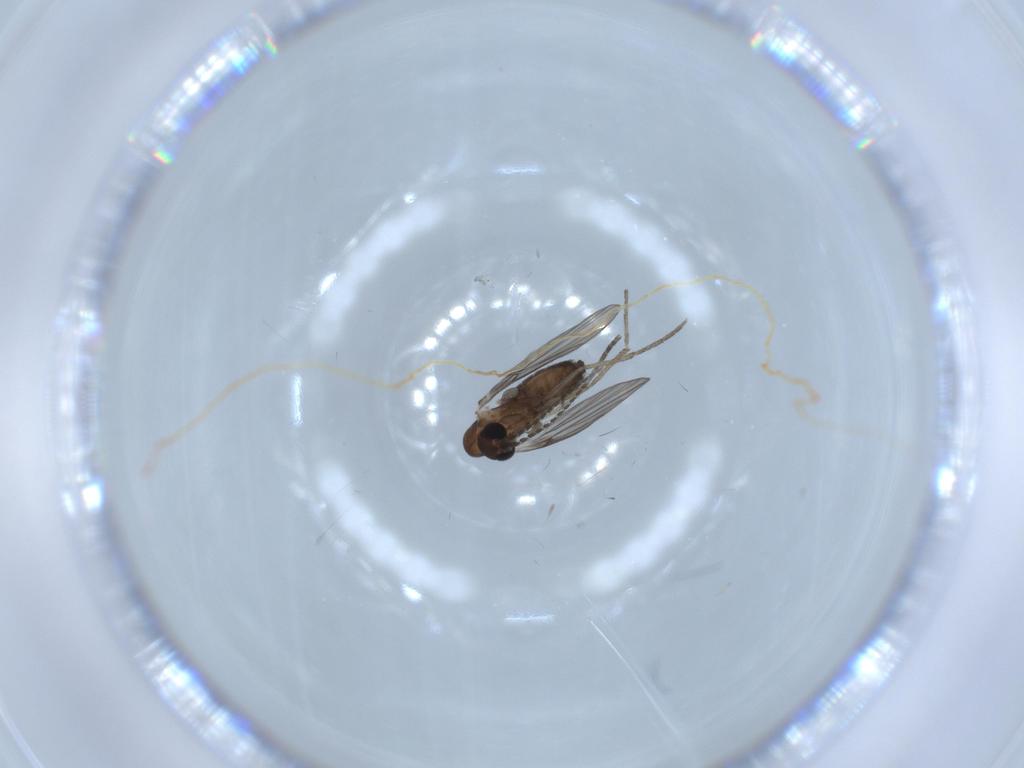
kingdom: Animalia
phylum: Arthropoda
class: Insecta
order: Diptera
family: Psychodidae
